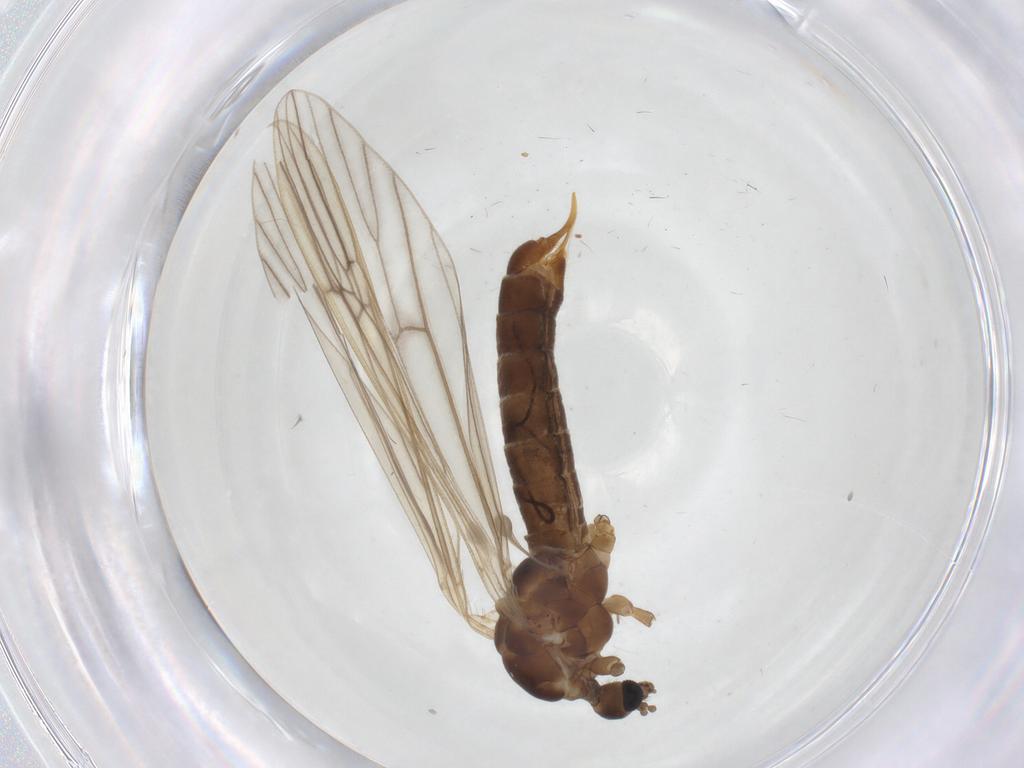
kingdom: Animalia
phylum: Arthropoda
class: Insecta
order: Diptera
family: Limoniidae
